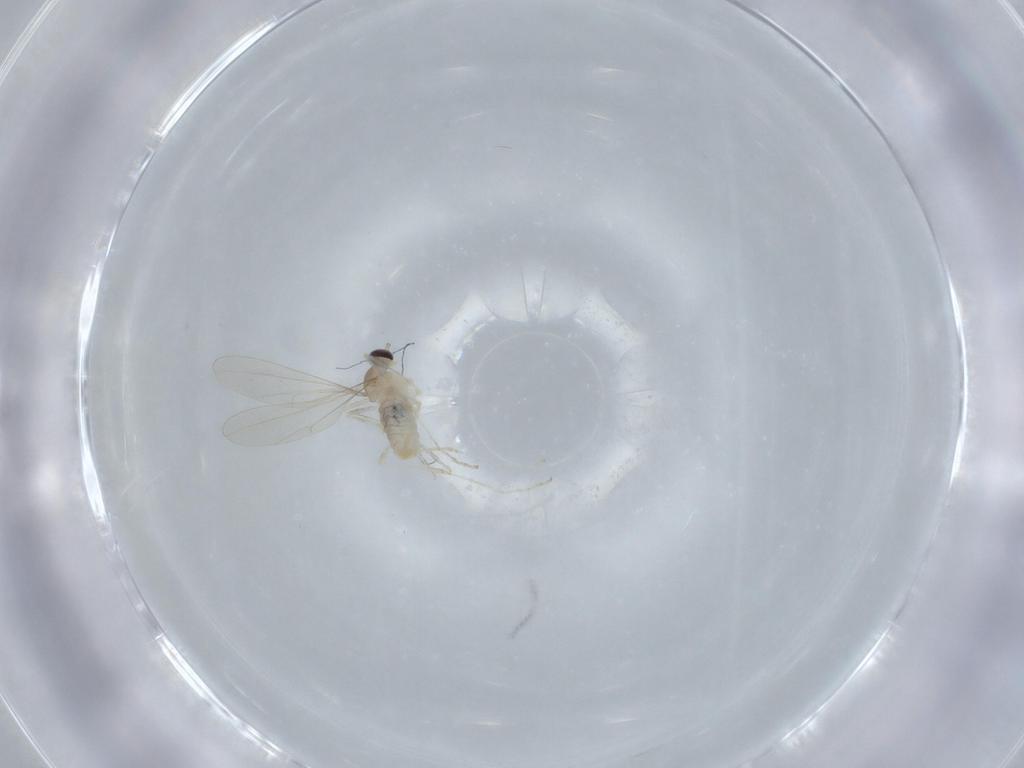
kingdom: Animalia
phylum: Arthropoda
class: Insecta
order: Diptera
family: Cecidomyiidae
